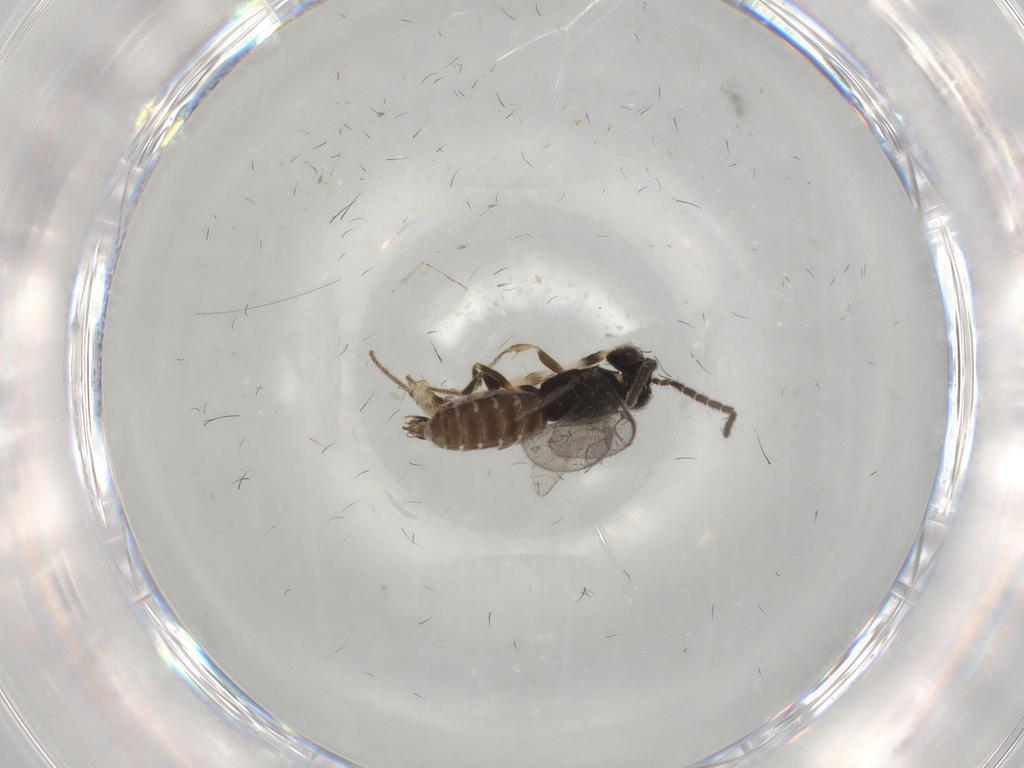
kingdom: Animalia
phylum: Arthropoda
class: Insecta
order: Hymenoptera
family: Dryinidae
